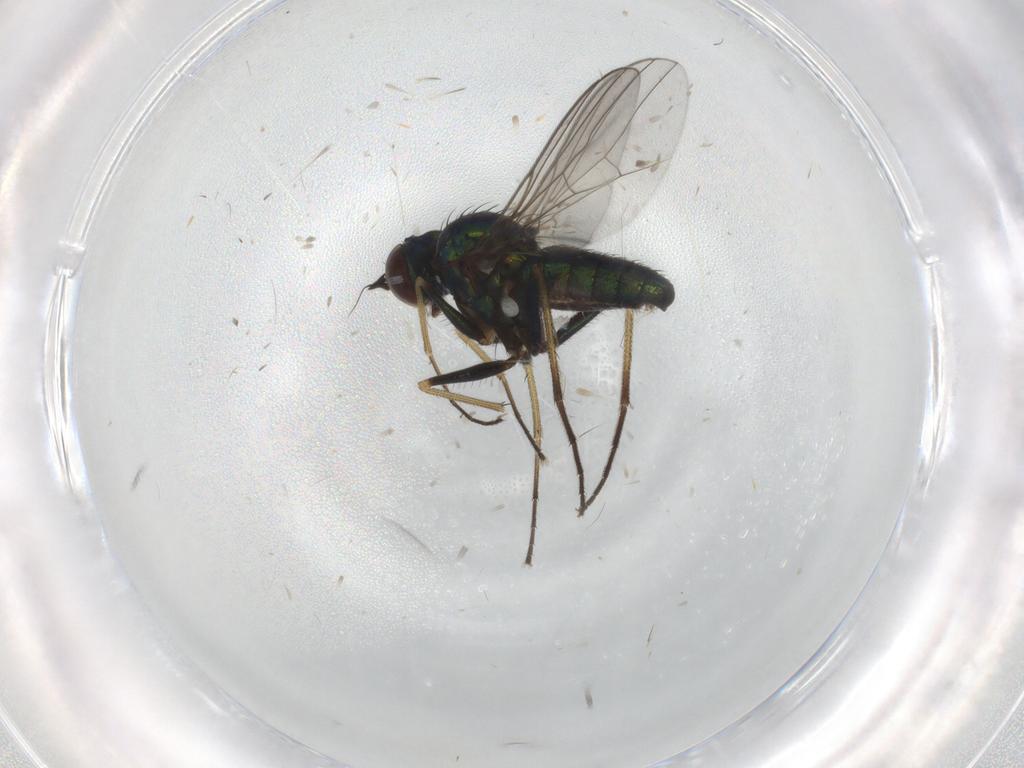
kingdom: Animalia
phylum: Arthropoda
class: Insecta
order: Diptera
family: Dolichopodidae
